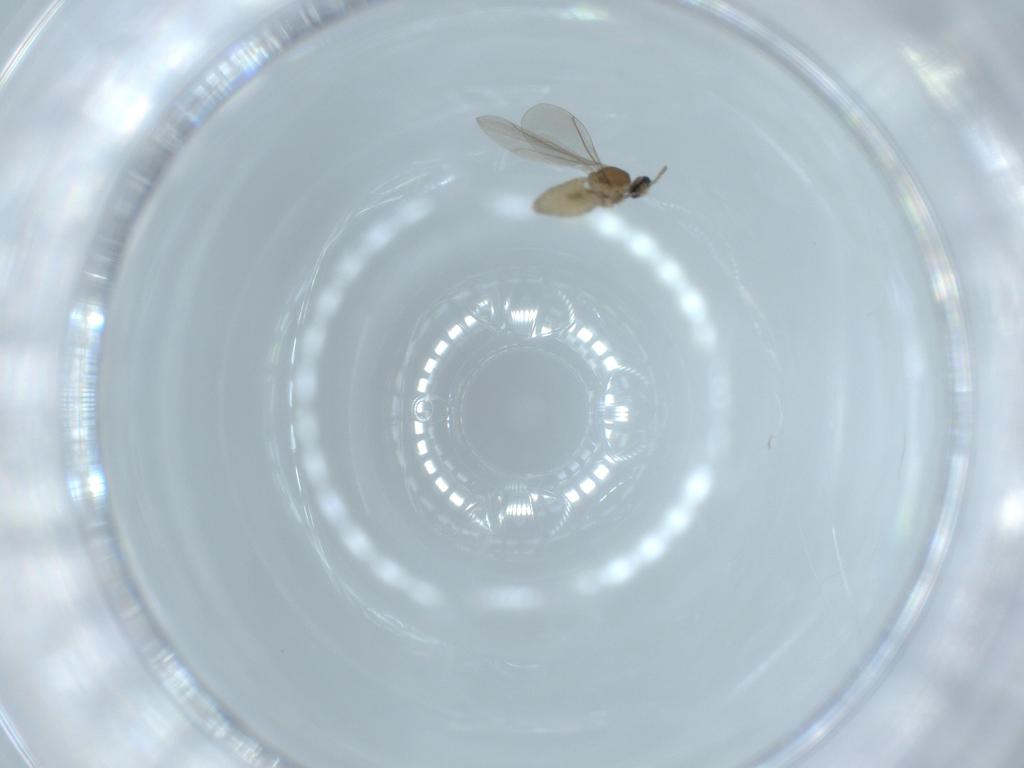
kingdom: Animalia
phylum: Arthropoda
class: Insecta
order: Diptera
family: Cecidomyiidae
